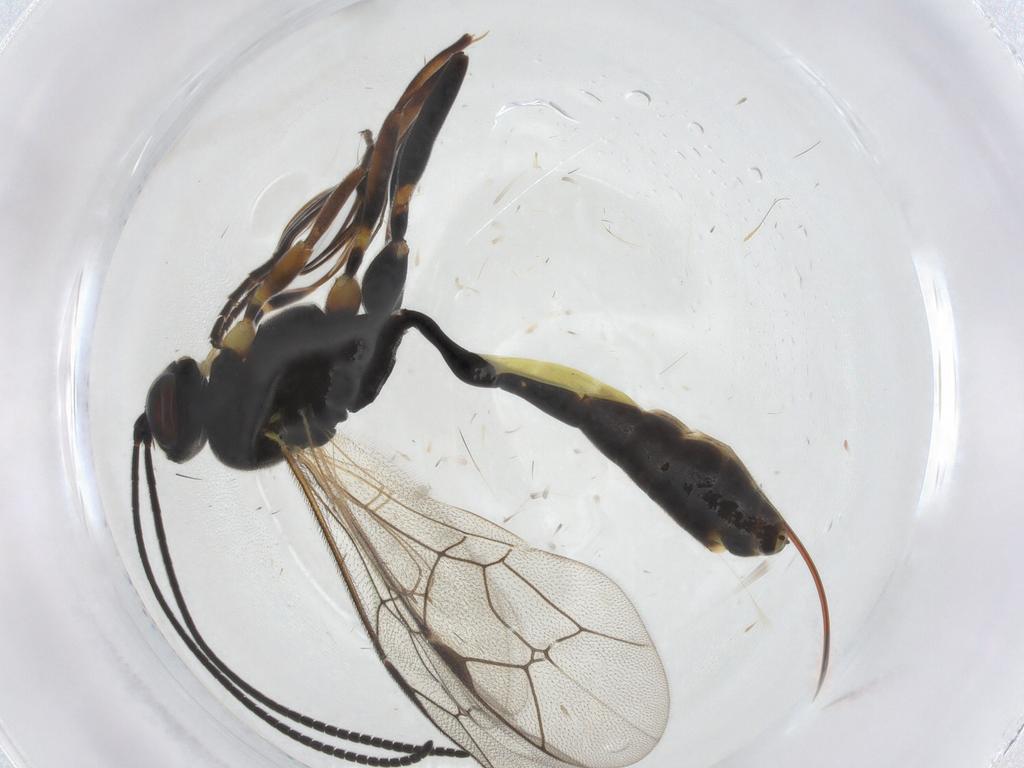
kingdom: Animalia
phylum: Arthropoda
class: Insecta
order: Hymenoptera
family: Ichneumonidae
